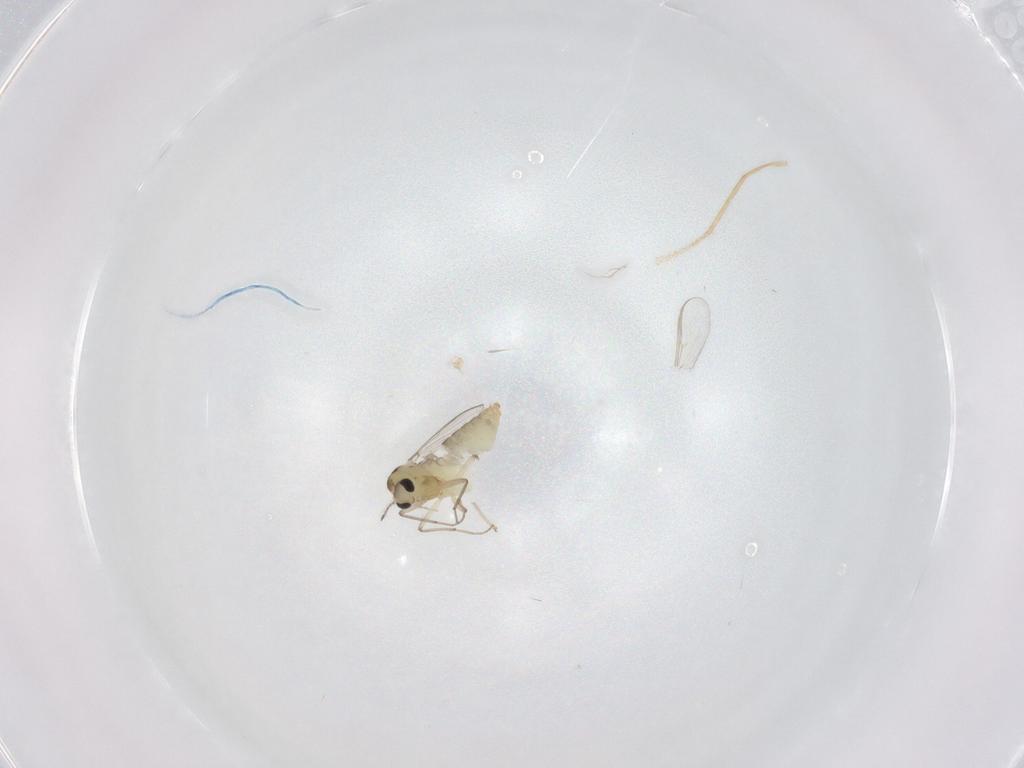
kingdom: Animalia
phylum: Arthropoda
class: Insecta
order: Diptera
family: Chironomidae
